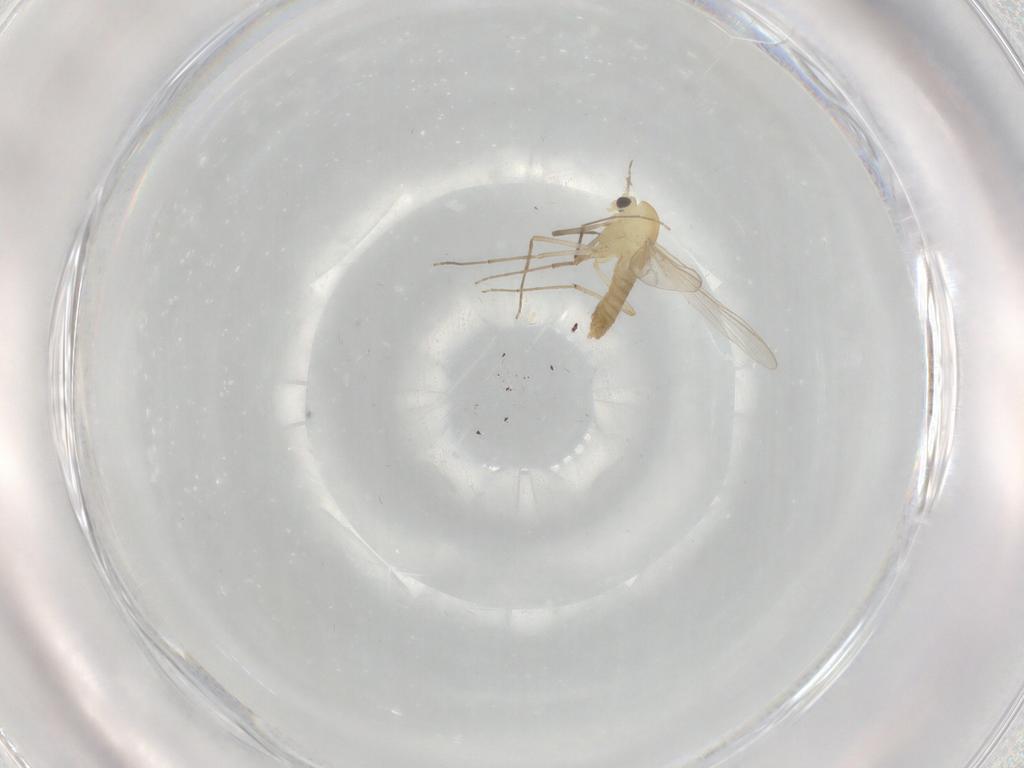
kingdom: Animalia
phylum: Arthropoda
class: Insecta
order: Diptera
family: Chironomidae
